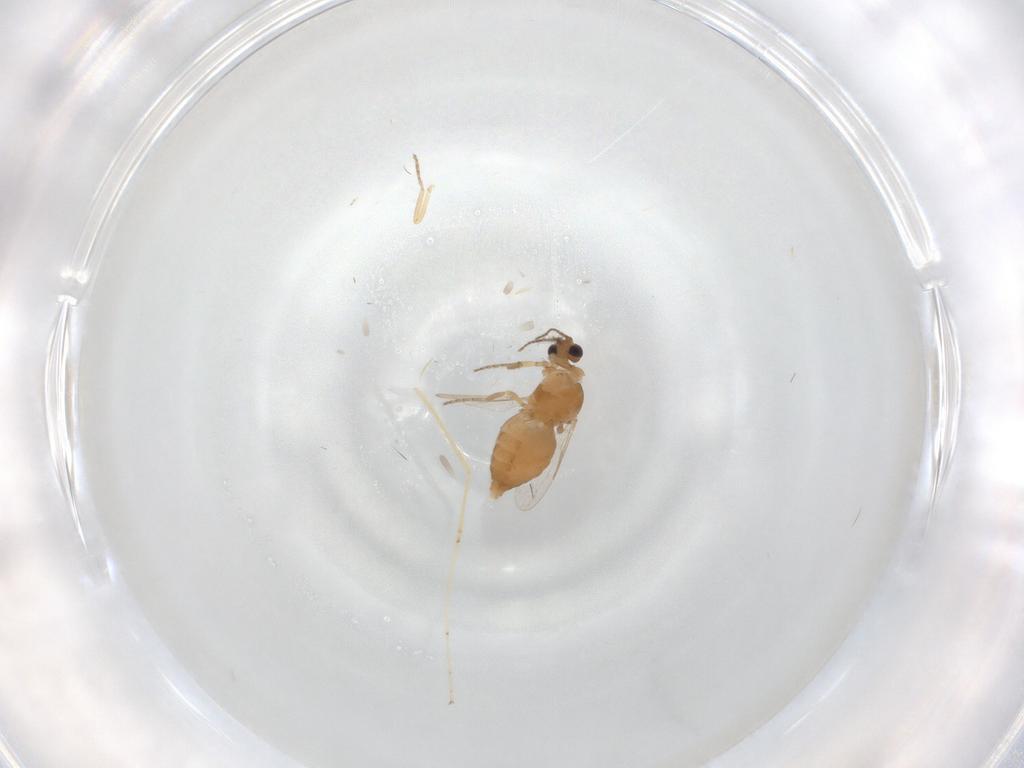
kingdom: Animalia
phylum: Arthropoda
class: Insecta
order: Diptera
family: Ceratopogonidae
